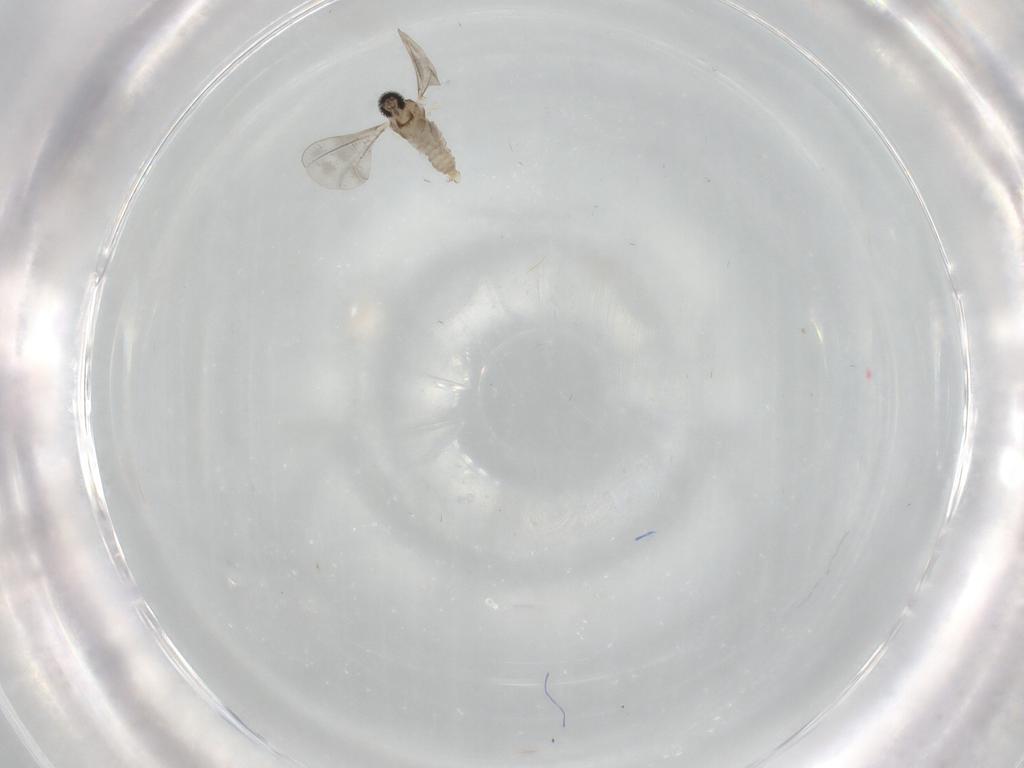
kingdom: Animalia
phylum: Arthropoda
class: Insecta
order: Diptera
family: Cecidomyiidae
